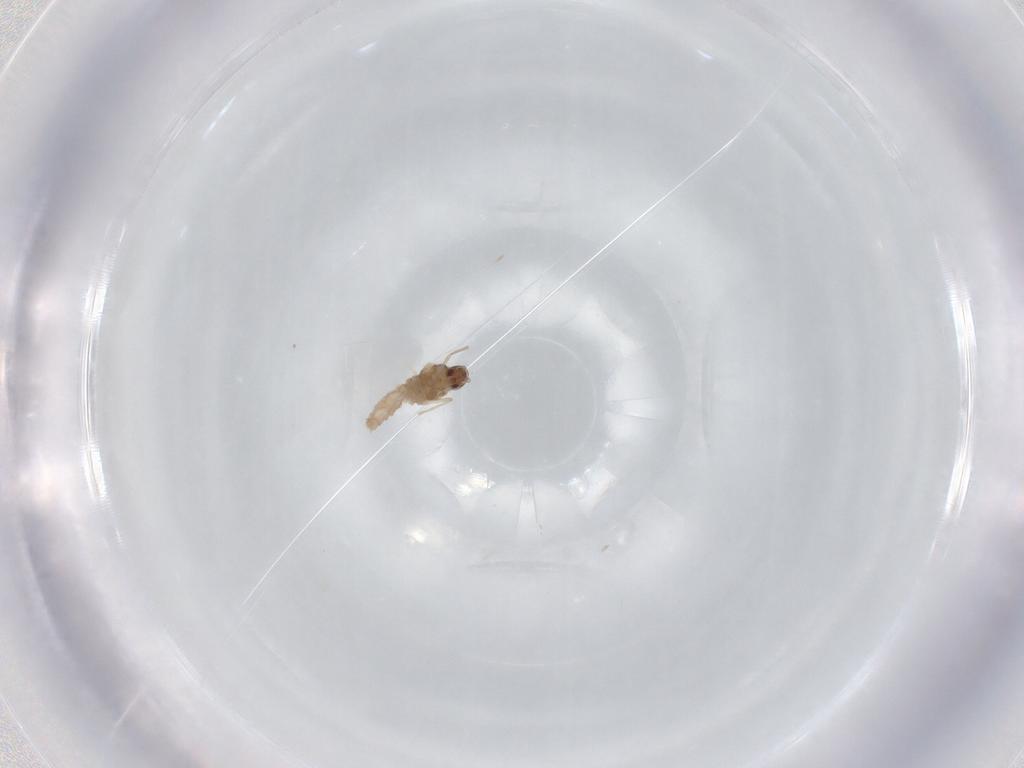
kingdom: Animalia
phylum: Arthropoda
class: Insecta
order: Diptera
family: Cecidomyiidae
